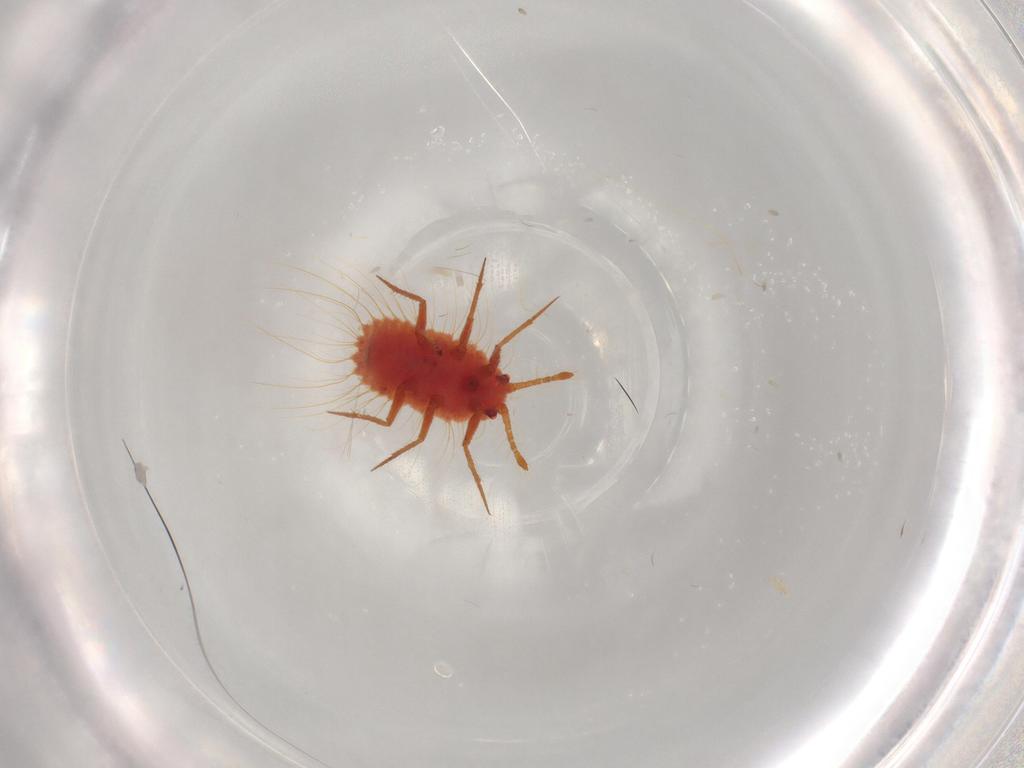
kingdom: Animalia
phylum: Arthropoda
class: Insecta
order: Hemiptera
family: Monophlebidae
